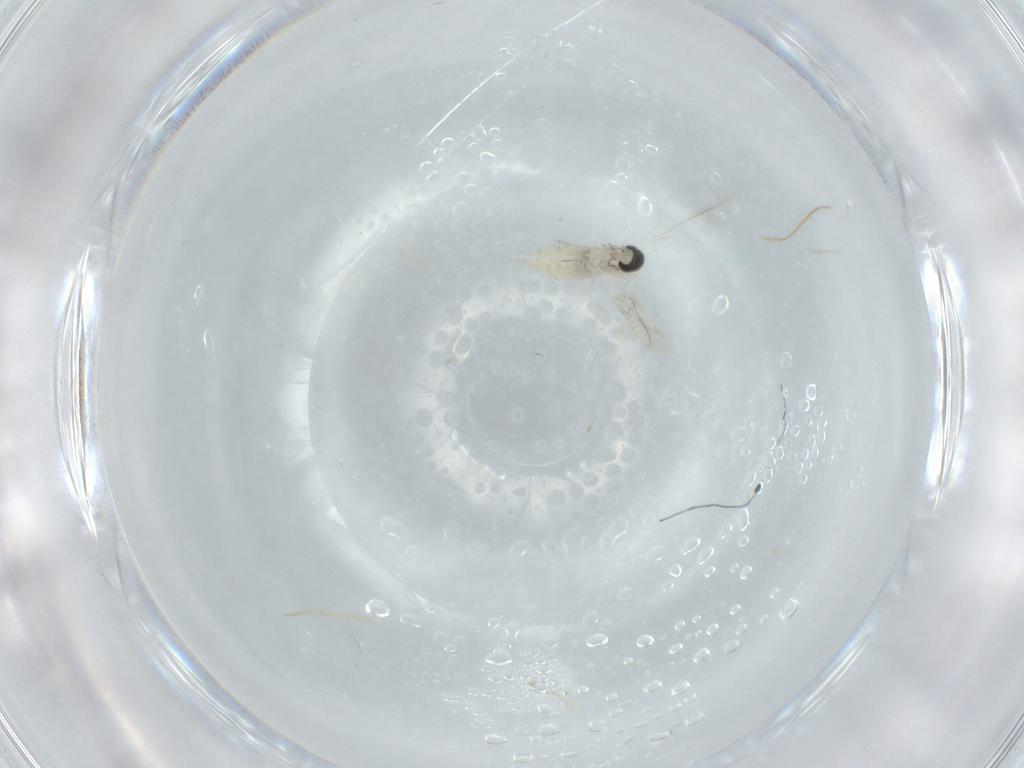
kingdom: Animalia
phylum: Arthropoda
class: Insecta
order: Diptera
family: Cecidomyiidae
